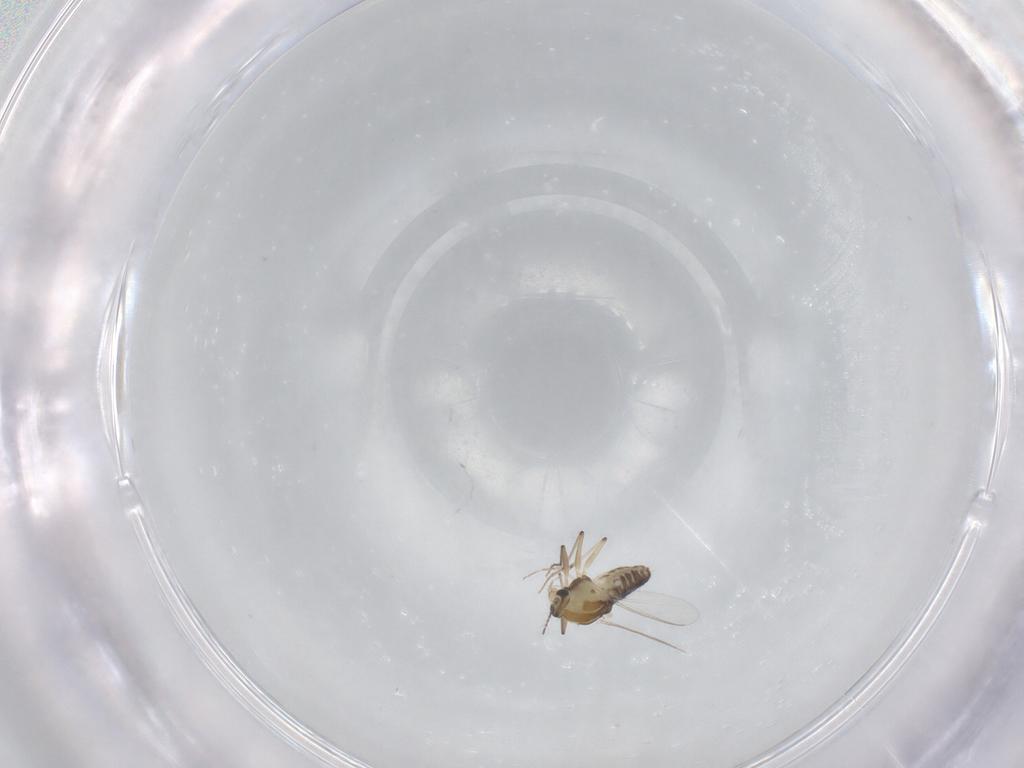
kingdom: Animalia
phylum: Arthropoda
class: Insecta
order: Diptera
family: Chironomidae
